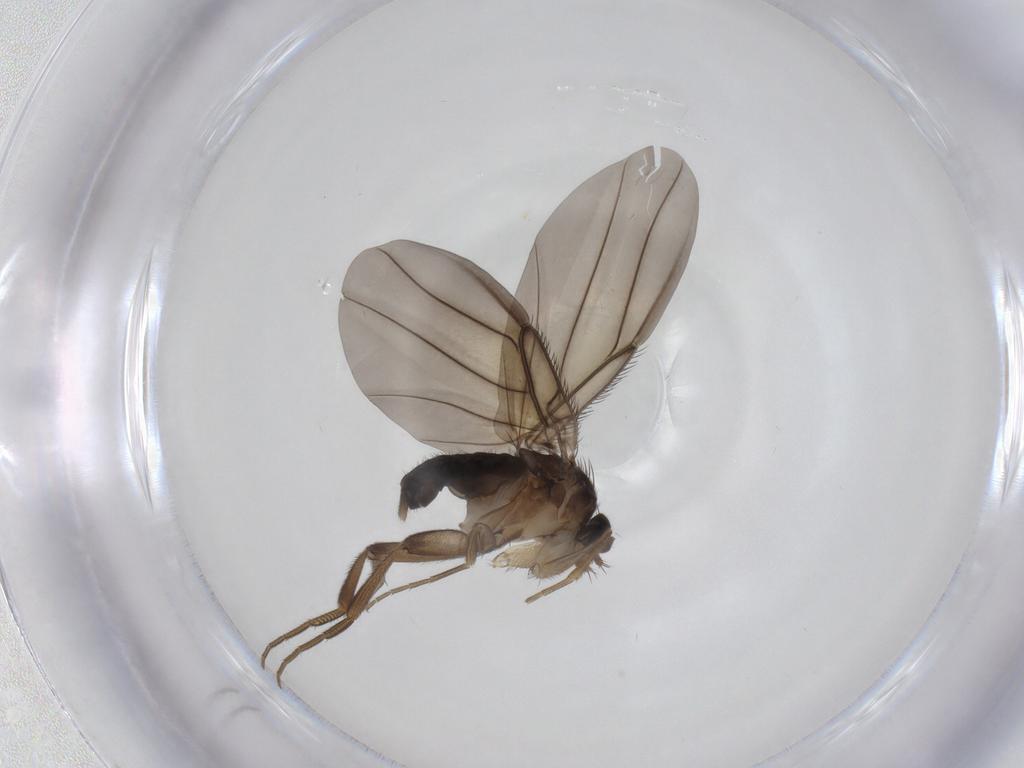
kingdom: Animalia
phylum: Arthropoda
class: Insecta
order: Diptera
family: Phoridae
